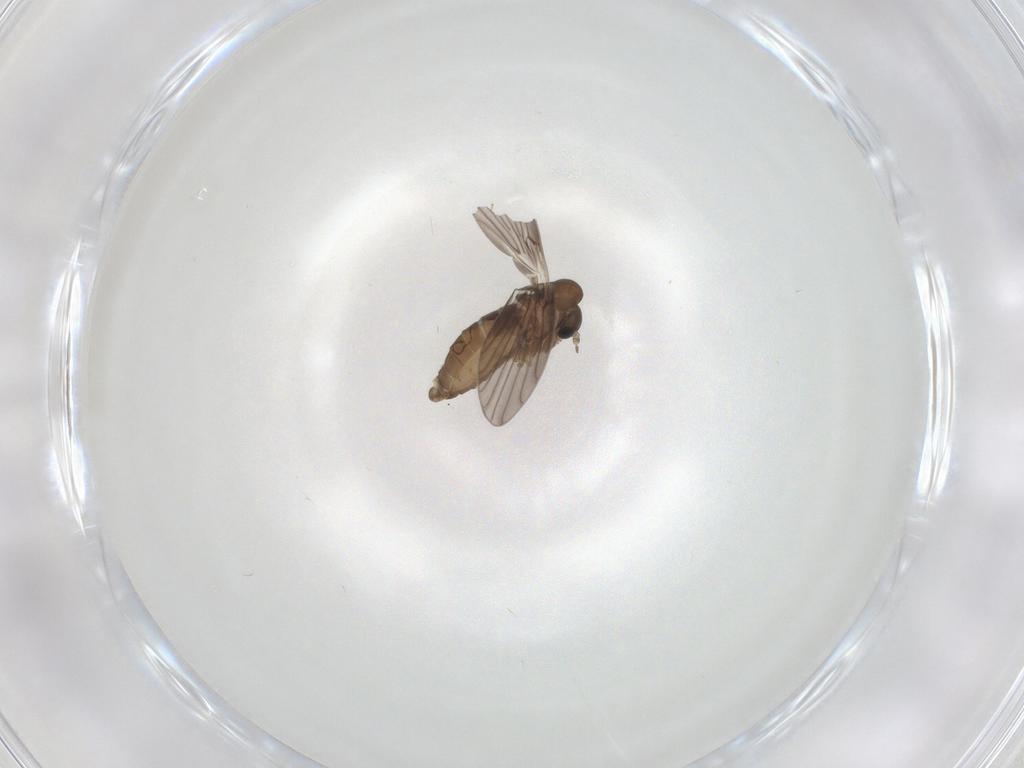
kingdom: Animalia
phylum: Arthropoda
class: Insecta
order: Diptera
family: Psychodidae
